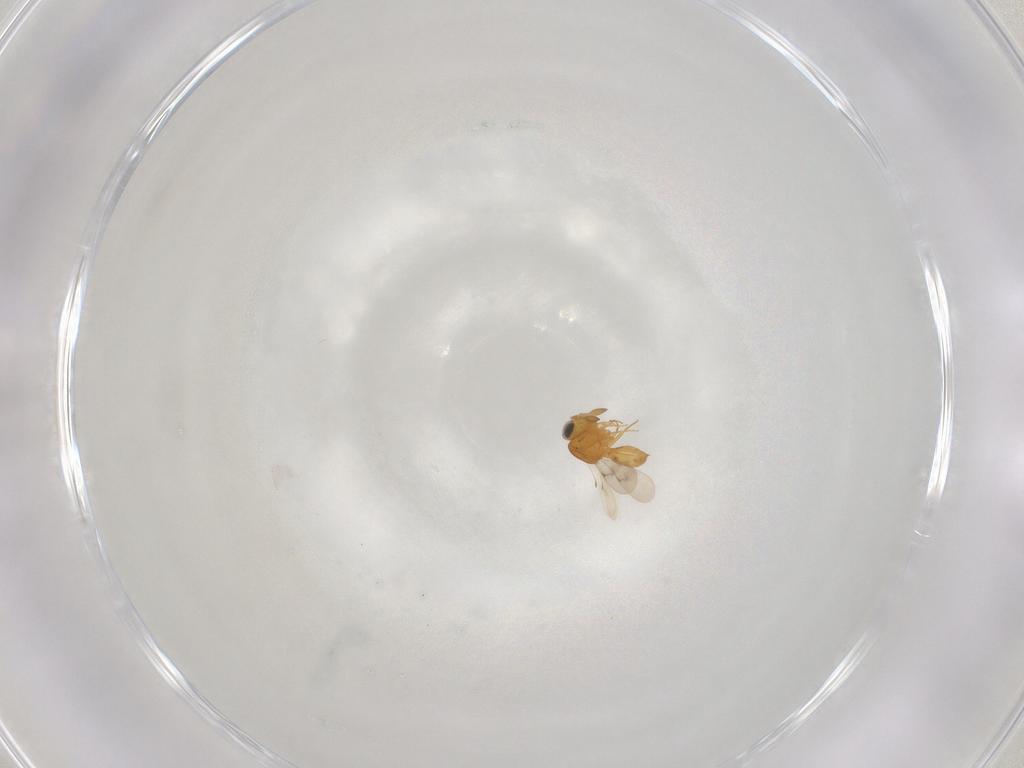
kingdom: Animalia
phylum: Arthropoda
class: Insecta
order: Hymenoptera
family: Scelionidae
